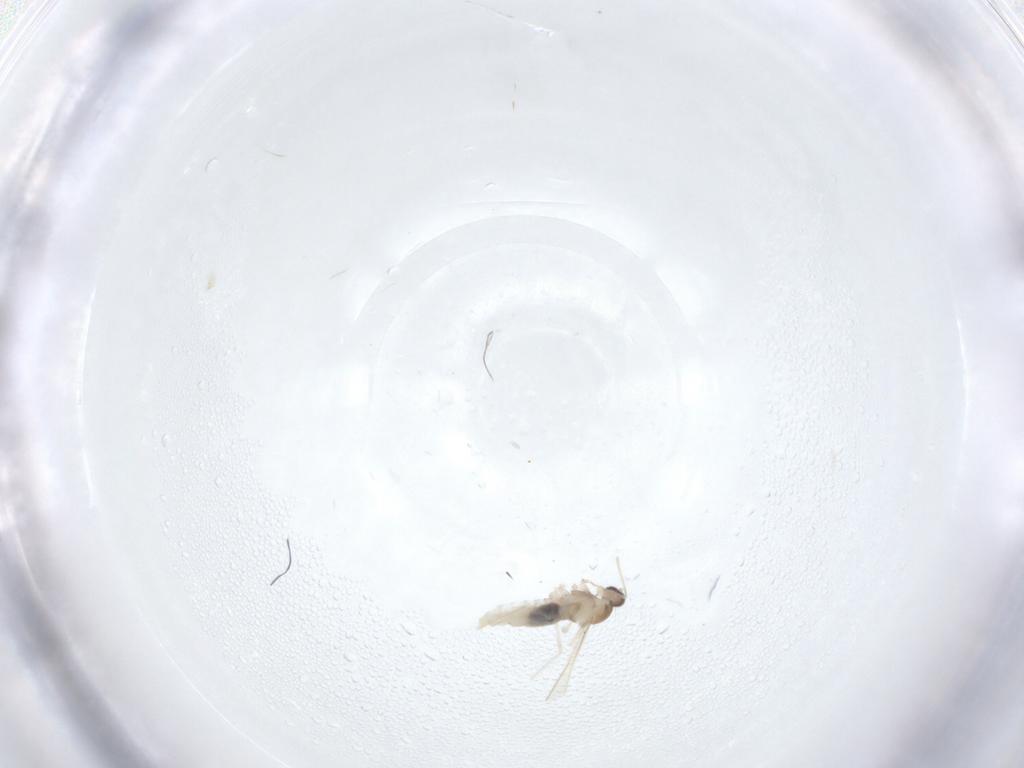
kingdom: Animalia
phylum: Arthropoda
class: Insecta
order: Diptera
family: Cecidomyiidae
